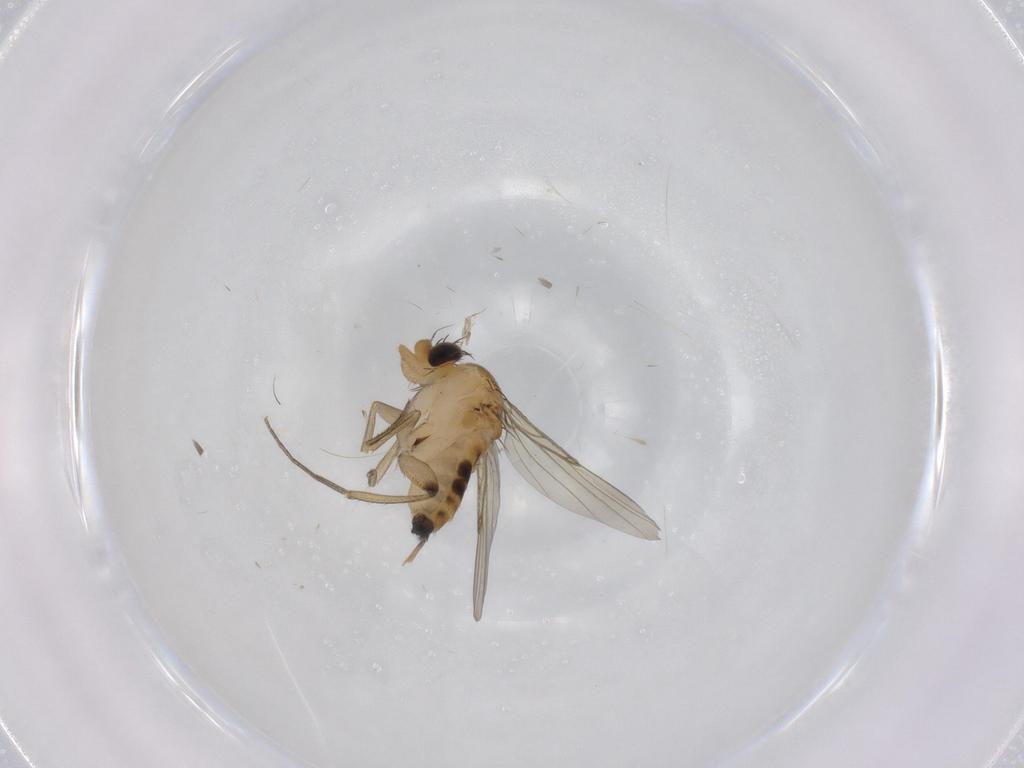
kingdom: Animalia
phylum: Arthropoda
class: Insecta
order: Diptera
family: Phoridae
